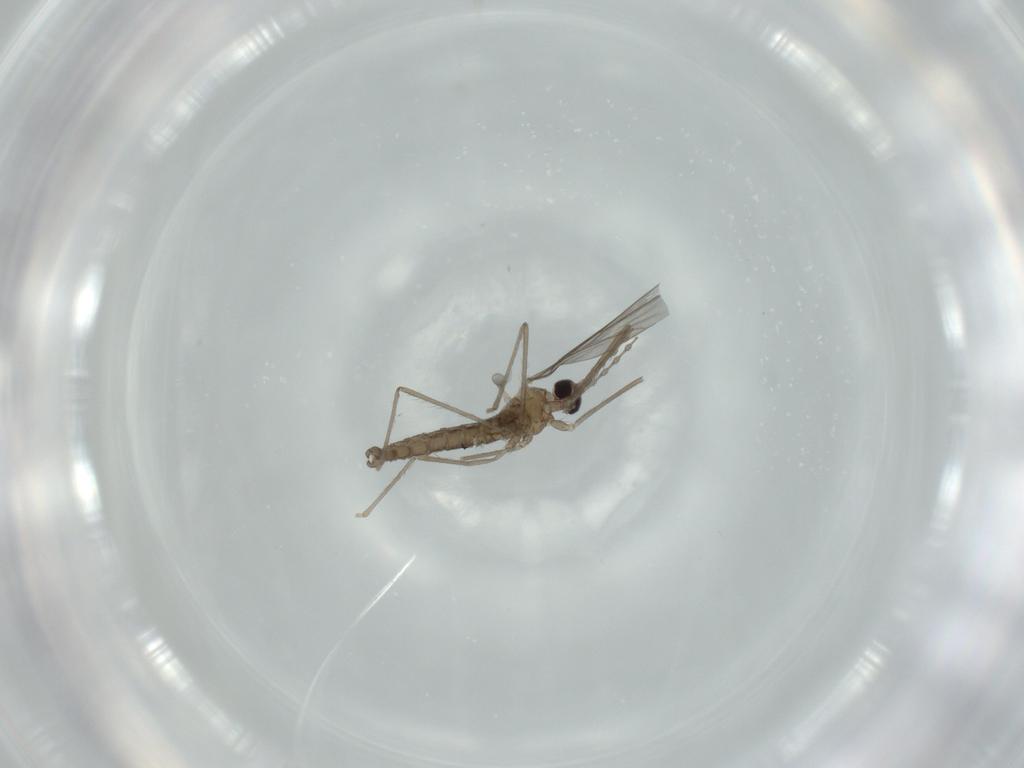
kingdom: Animalia
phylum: Arthropoda
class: Insecta
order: Diptera
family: Cecidomyiidae
